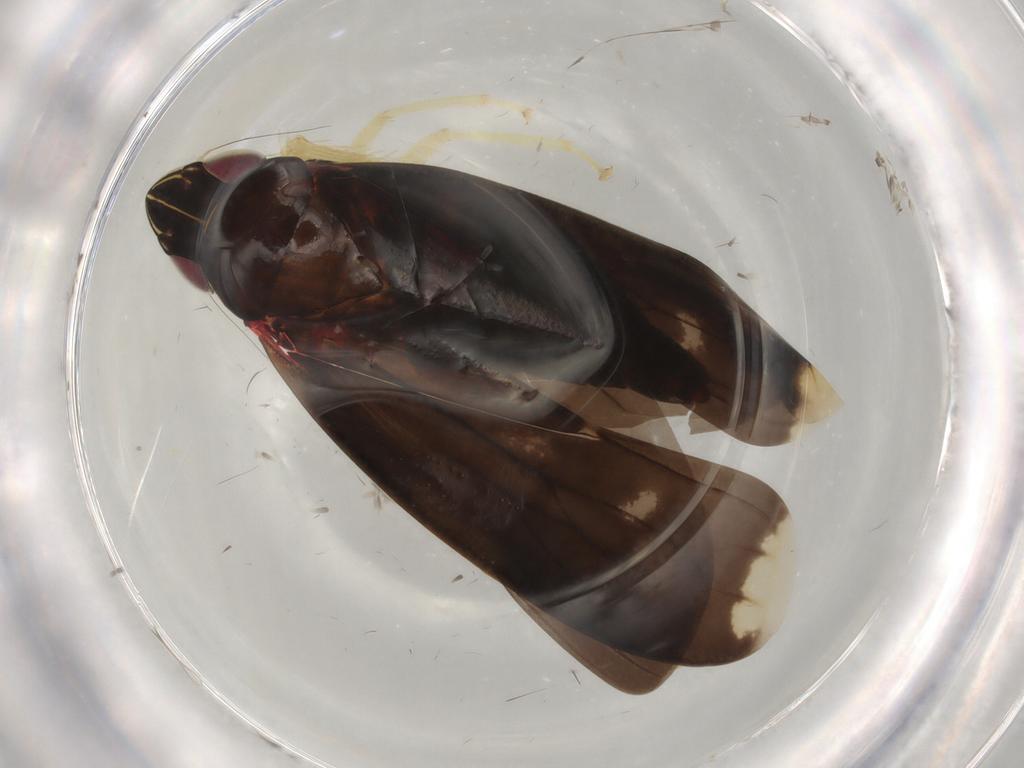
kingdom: Animalia
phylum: Arthropoda
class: Insecta
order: Hemiptera
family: Cicadellidae
